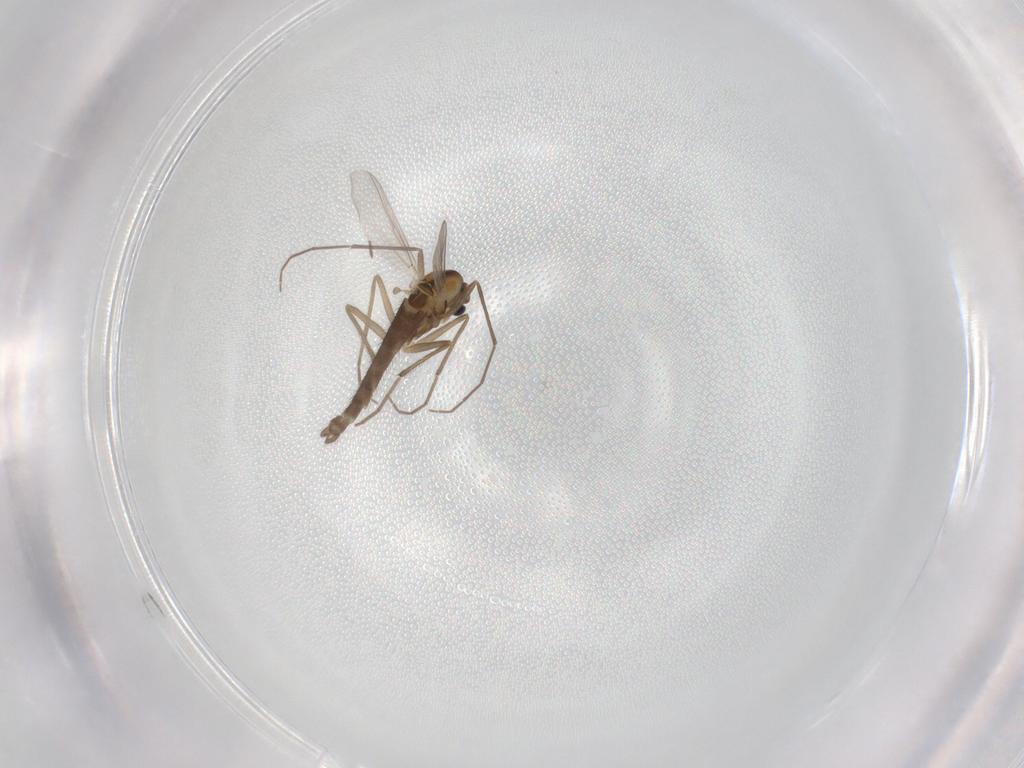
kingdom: Animalia
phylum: Arthropoda
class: Insecta
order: Diptera
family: Chironomidae
